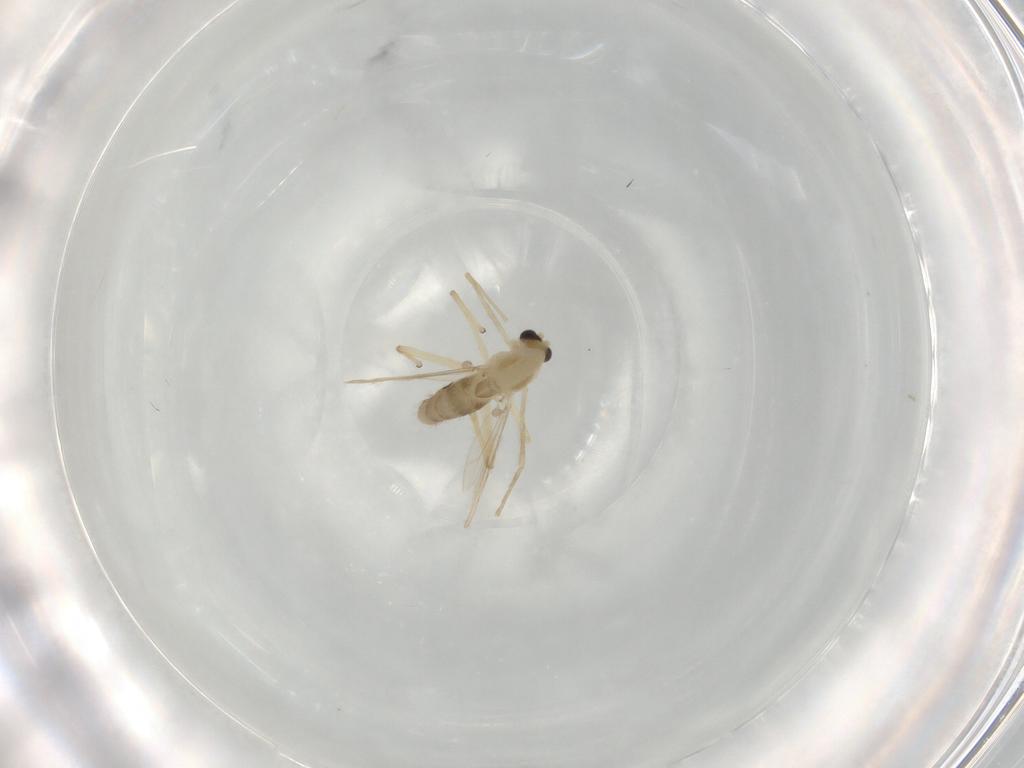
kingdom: Animalia
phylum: Arthropoda
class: Insecta
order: Diptera
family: Chironomidae
